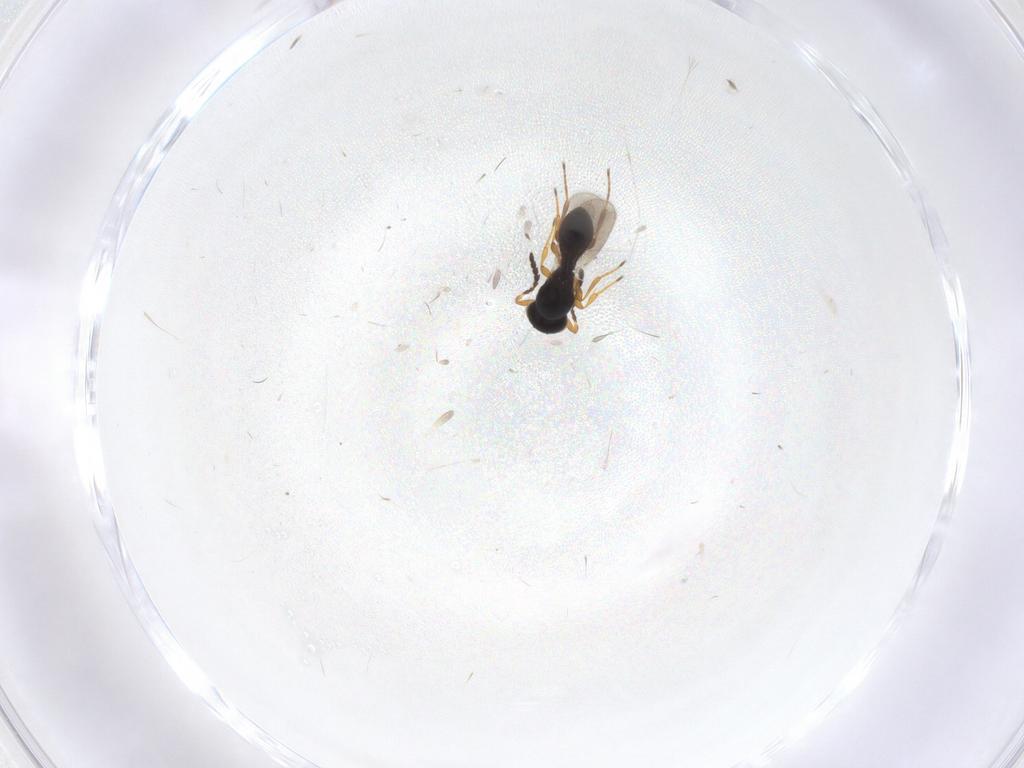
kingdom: Animalia
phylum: Arthropoda
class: Insecta
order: Hymenoptera
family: Platygastridae
